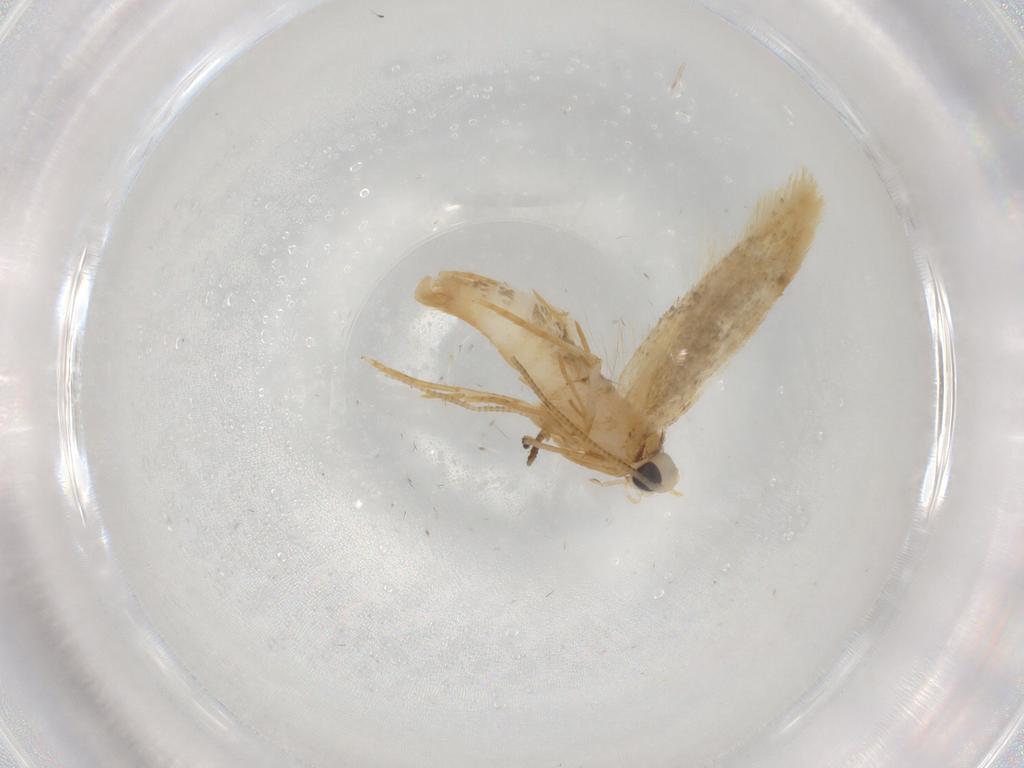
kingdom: Animalia
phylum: Arthropoda
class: Insecta
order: Lepidoptera
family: Tineidae
